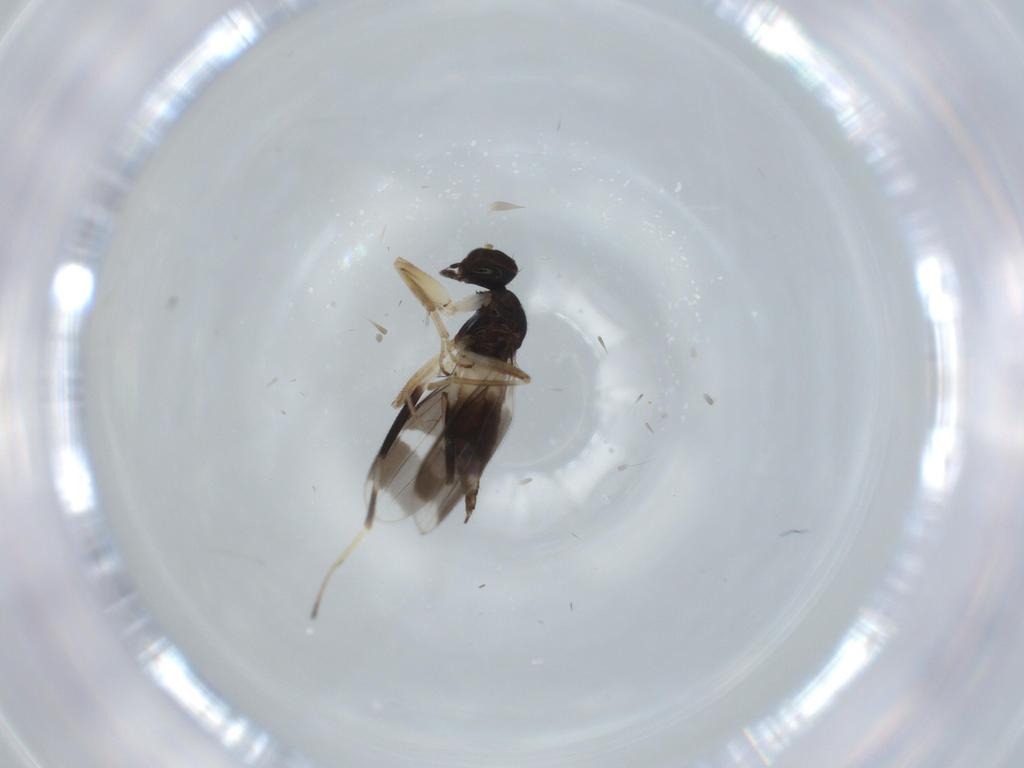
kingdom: Animalia
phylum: Arthropoda
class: Insecta
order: Diptera
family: Hybotidae
